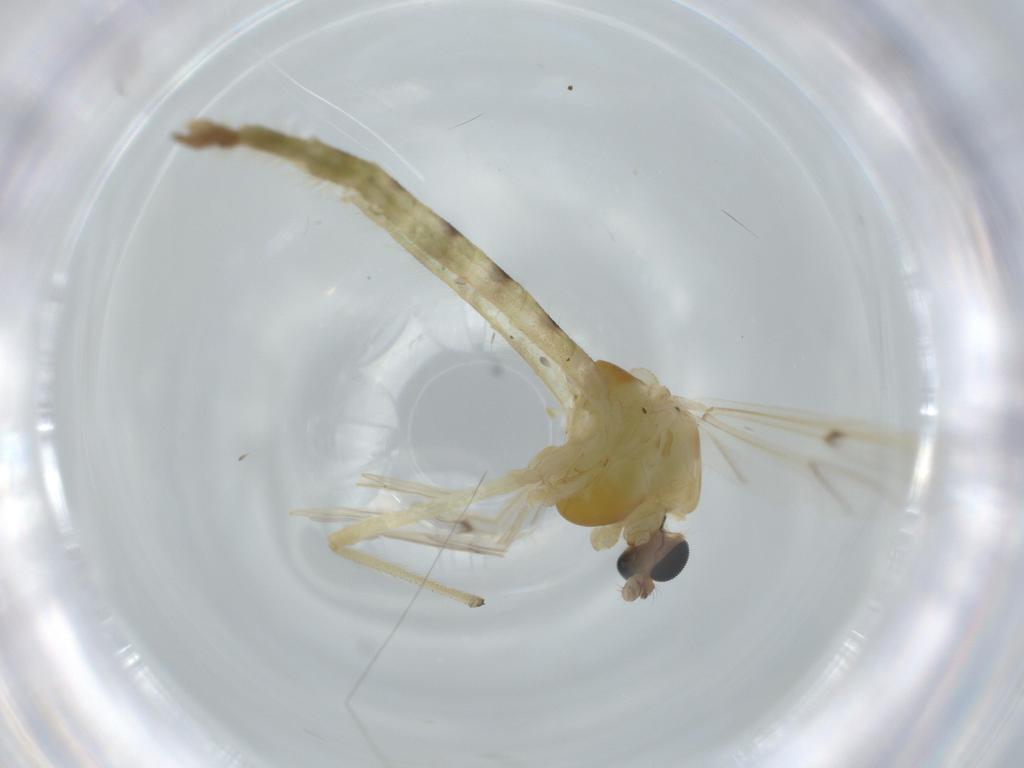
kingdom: Animalia
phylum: Arthropoda
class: Insecta
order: Diptera
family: Chironomidae
